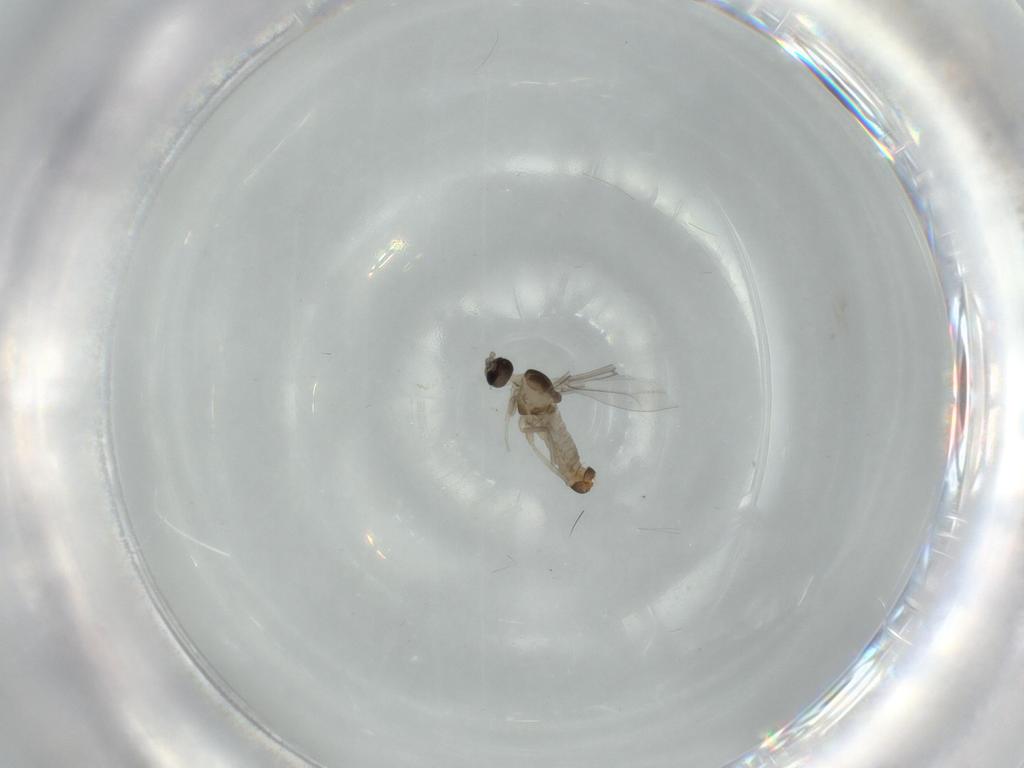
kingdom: Animalia
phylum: Arthropoda
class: Insecta
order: Diptera
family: Cecidomyiidae
